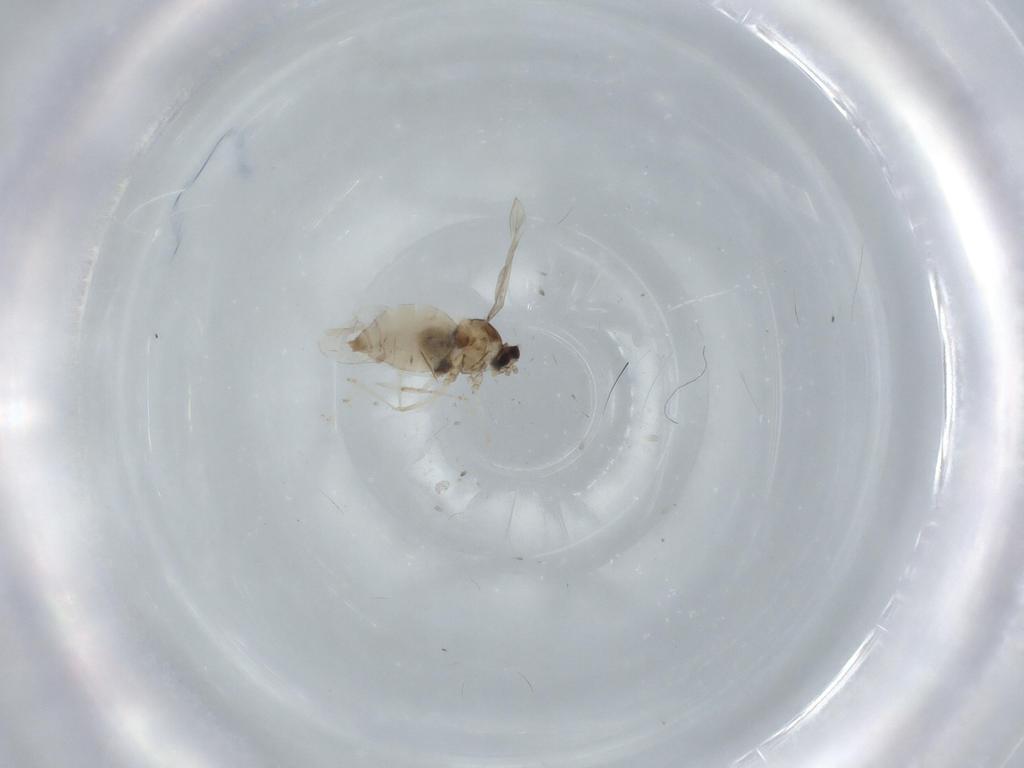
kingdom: Animalia
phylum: Arthropoda
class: Insecta
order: Diptera
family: Cecidomyiidae
